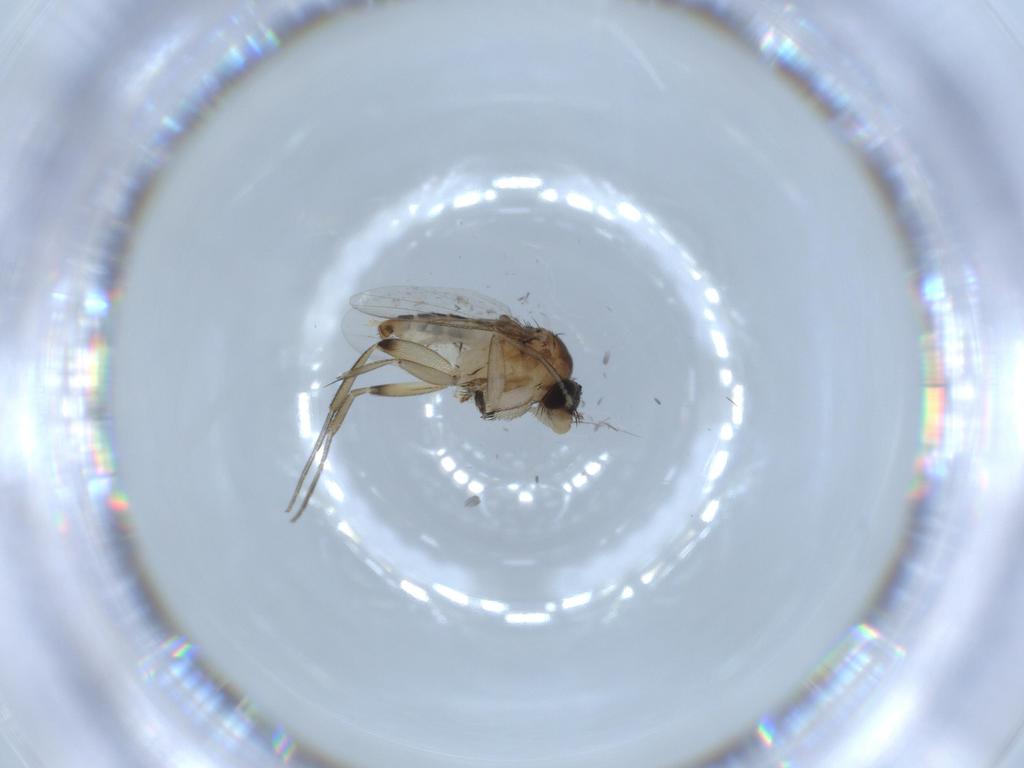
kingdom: Animalia
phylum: Arthropoda
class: Insecta
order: Diptera
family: Phoridae
